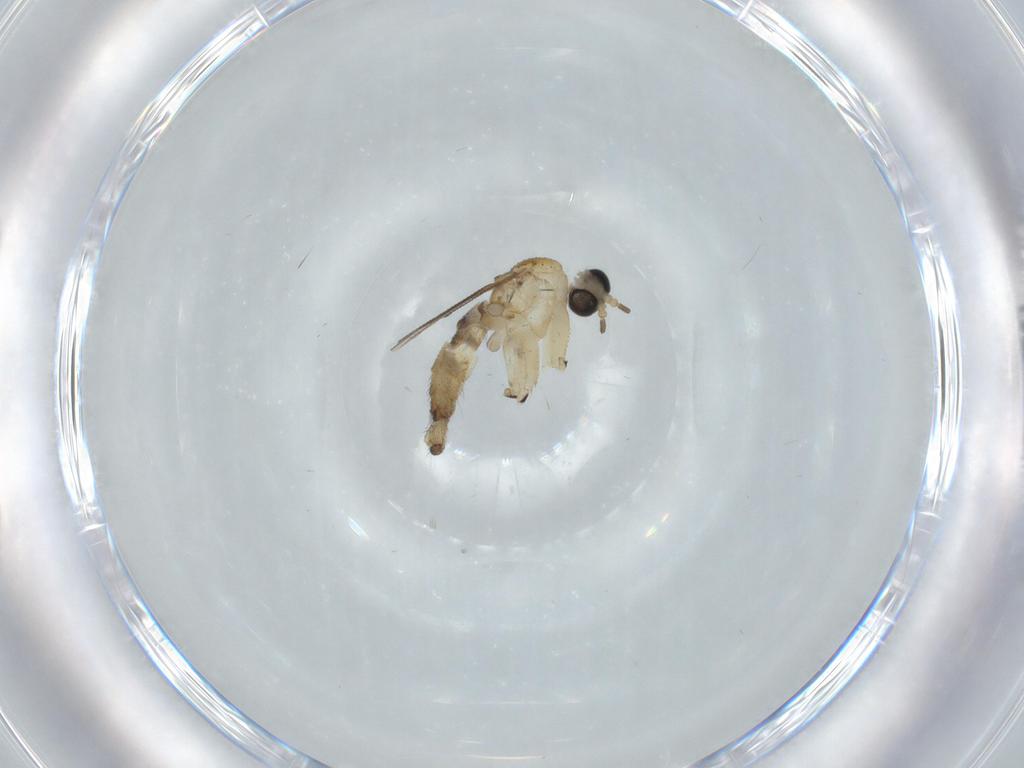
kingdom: Animalia
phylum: Arthropoda
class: Insecta
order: Diptera
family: Sciaridae
